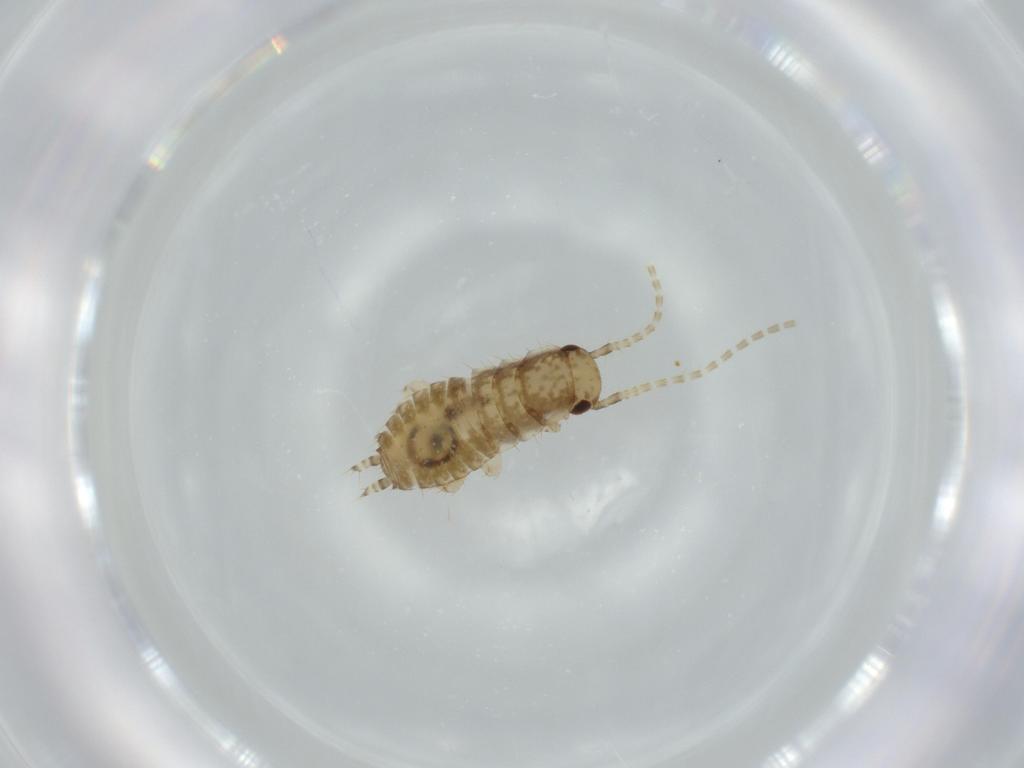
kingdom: Animalia
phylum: Arthropoda
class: Insecta
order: Blattodea
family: Ectobiidae
